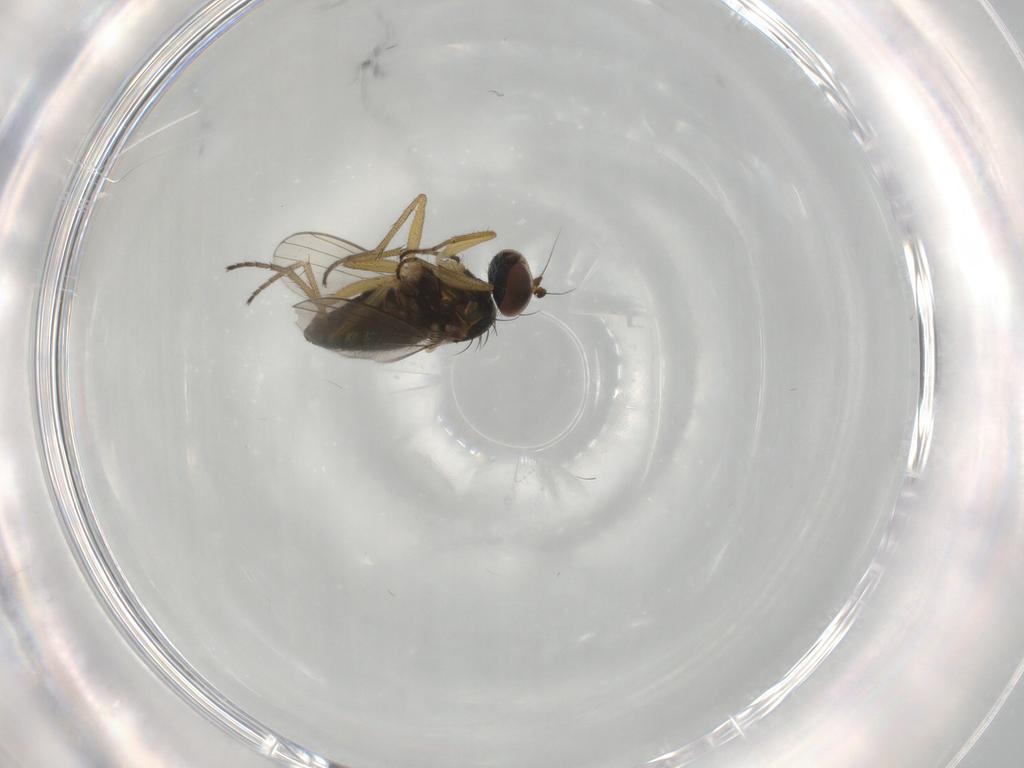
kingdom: Animalia
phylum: Arthropoda
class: Insecta
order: Diptera
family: Dolichopodidae
